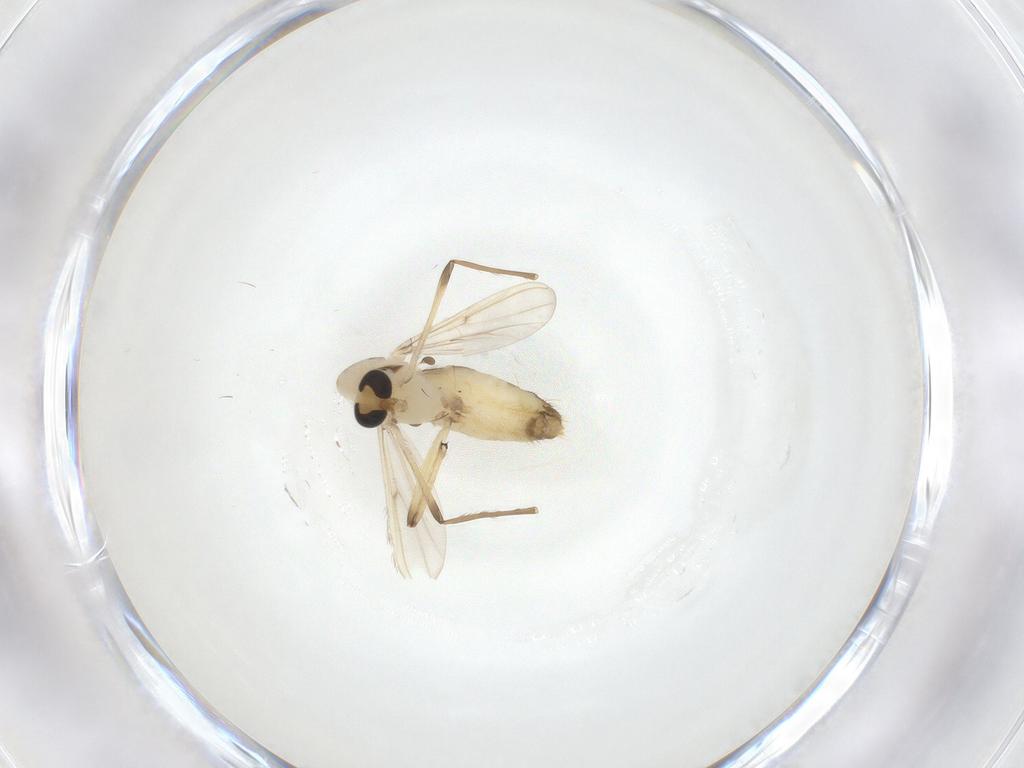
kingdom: Animalia
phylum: Arthropoda
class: Insecta
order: Diptera
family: Chironomidae
